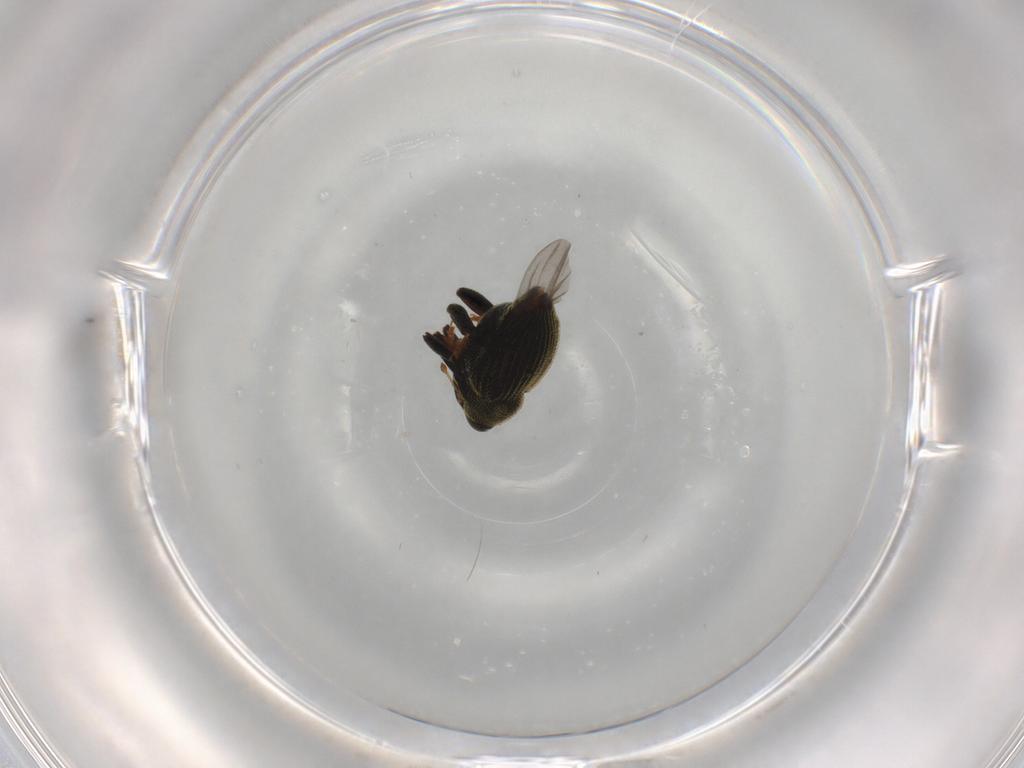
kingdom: Animalia
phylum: Arthropoda
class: Insecta
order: Coleoptera
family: Curculionidae
